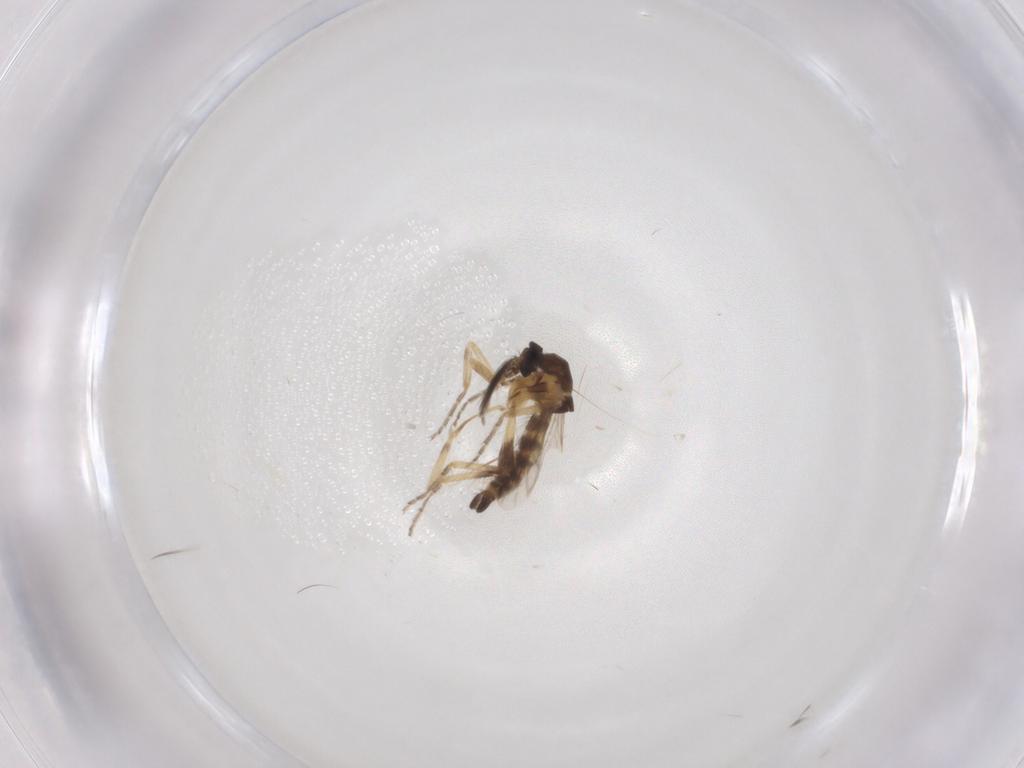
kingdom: Animalia
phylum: Arthropoda
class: Insecta
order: Diptera
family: Ceratopogonidae
